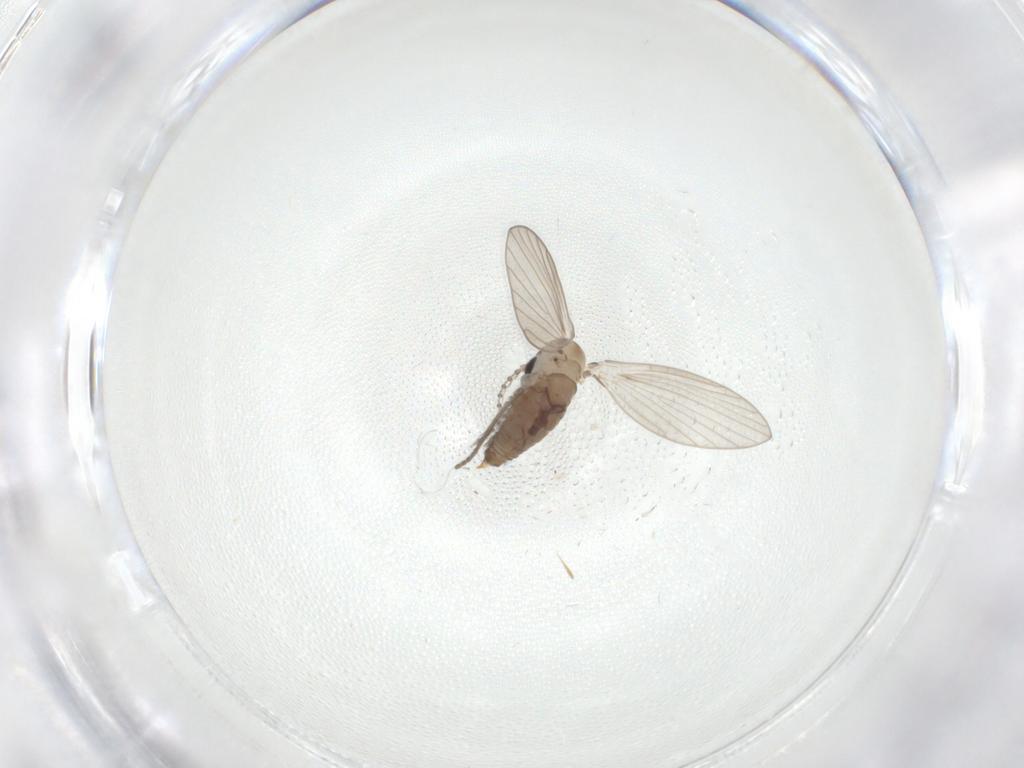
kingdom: Animalia
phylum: Arthropoda
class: Insecta
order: Diptera
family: Psychodidae
